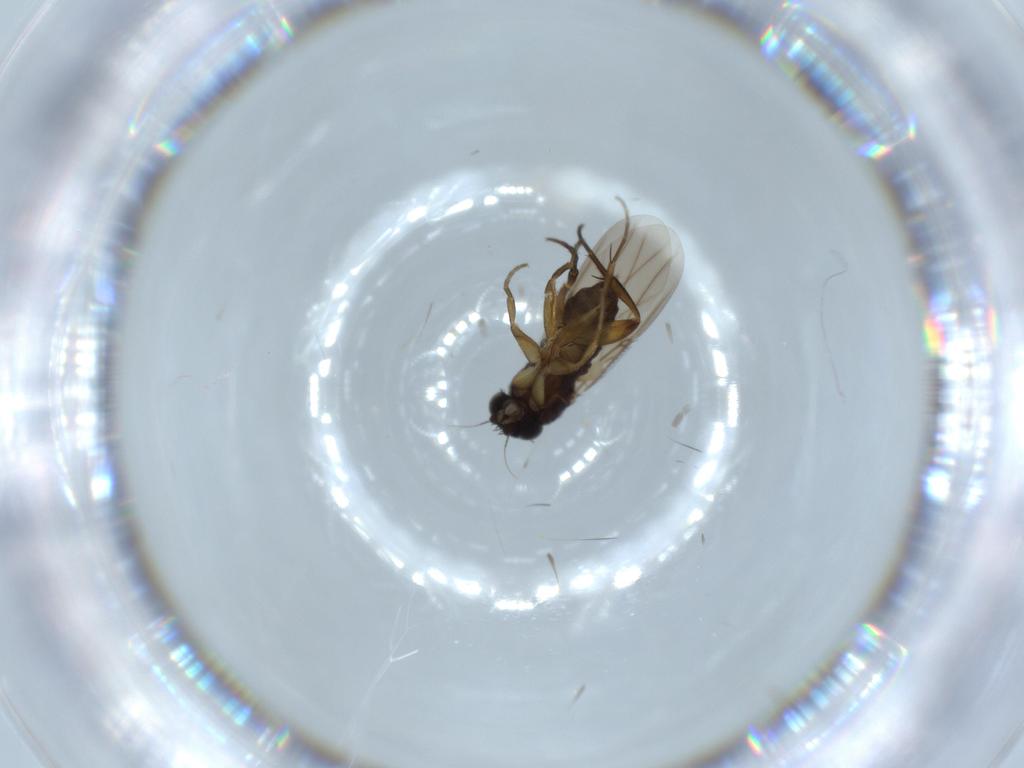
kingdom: Animalia
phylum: Arthropoda
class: Insecta
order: Diptera
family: Phoridae
